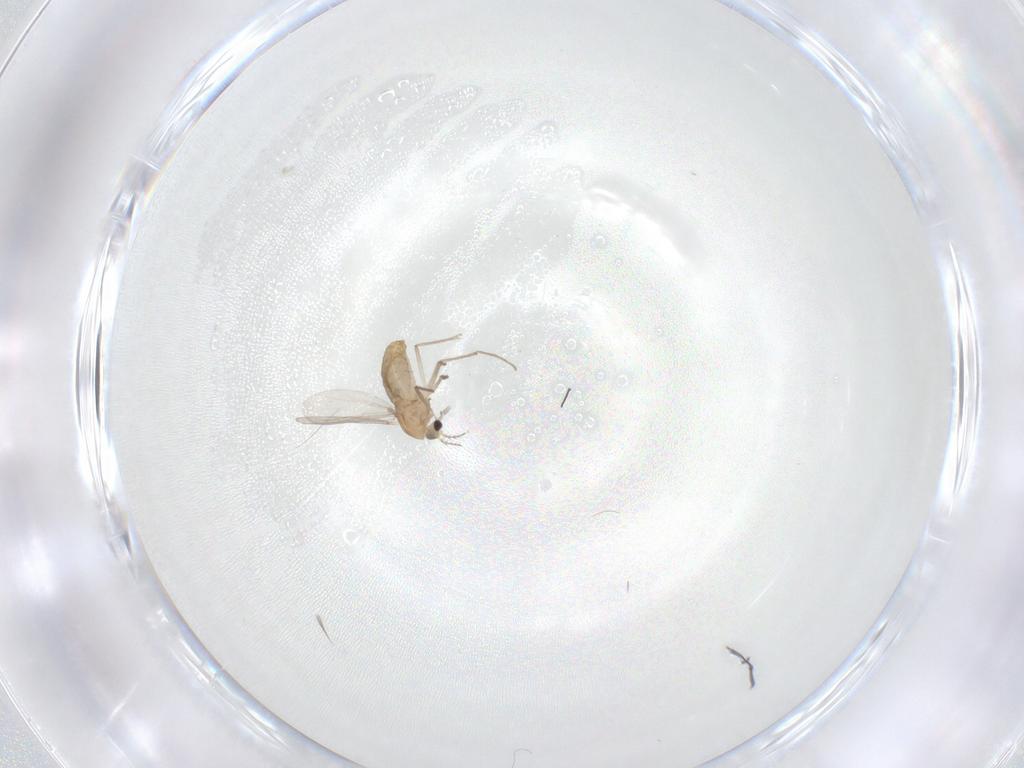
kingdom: Animalia
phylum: Arthropoda
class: Insecta
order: Diptera
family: Chironomidae
